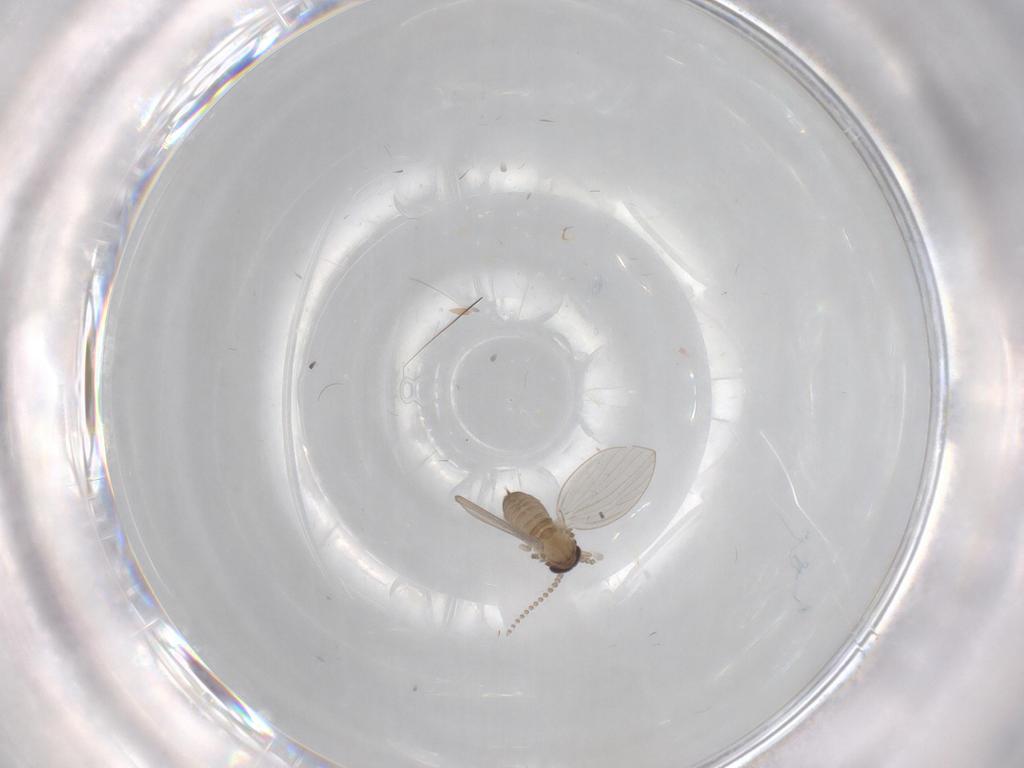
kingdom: Animalia
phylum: Arthropoda
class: Insecta
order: Diptera
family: Psychodidae
